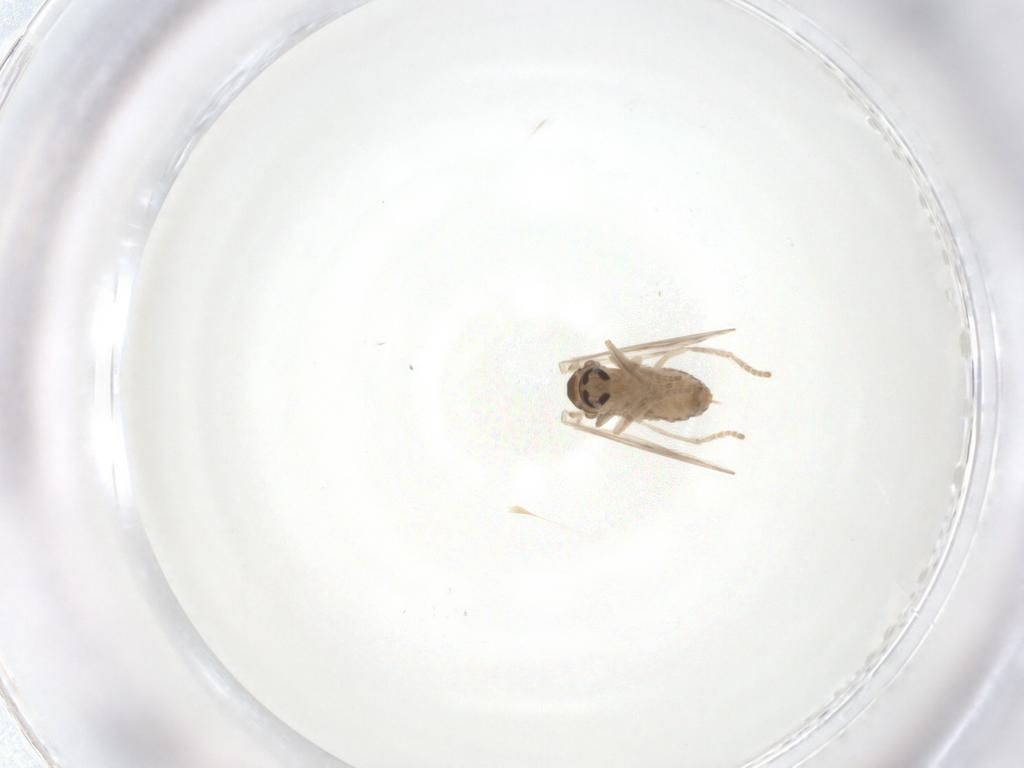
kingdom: Animalia
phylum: Arthropoda
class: Insecta
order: Diptera
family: Psychodidae
